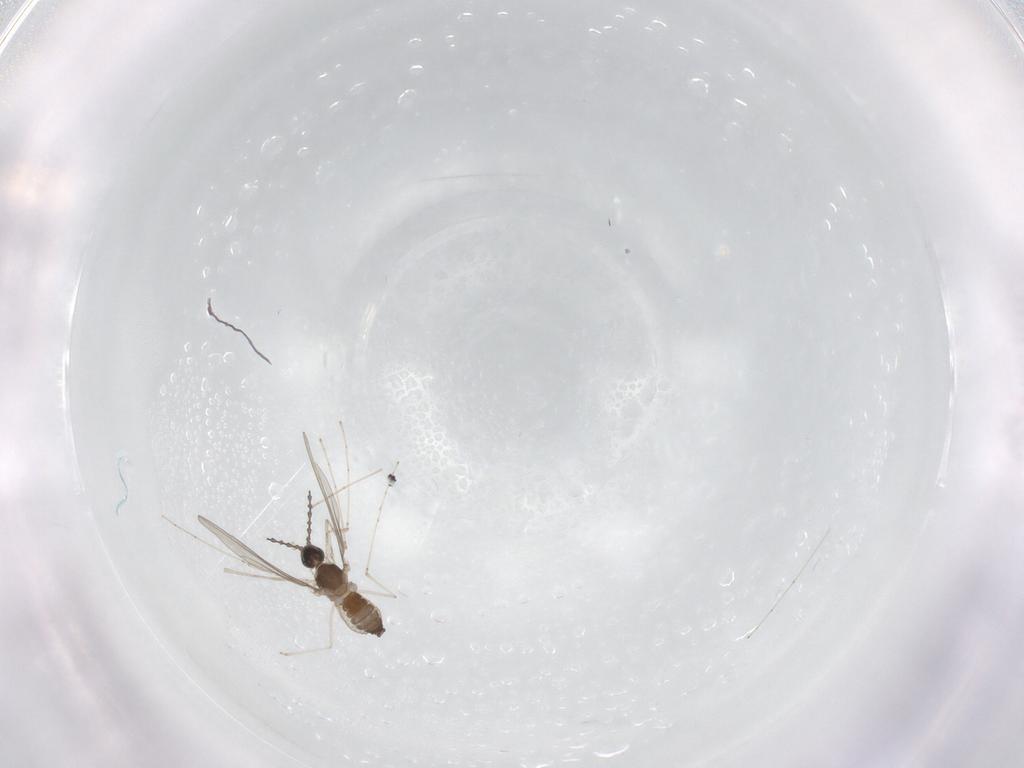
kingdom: Animalia
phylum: Arthropoda
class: Insecta
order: Diptera
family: Cecidomyiidae
